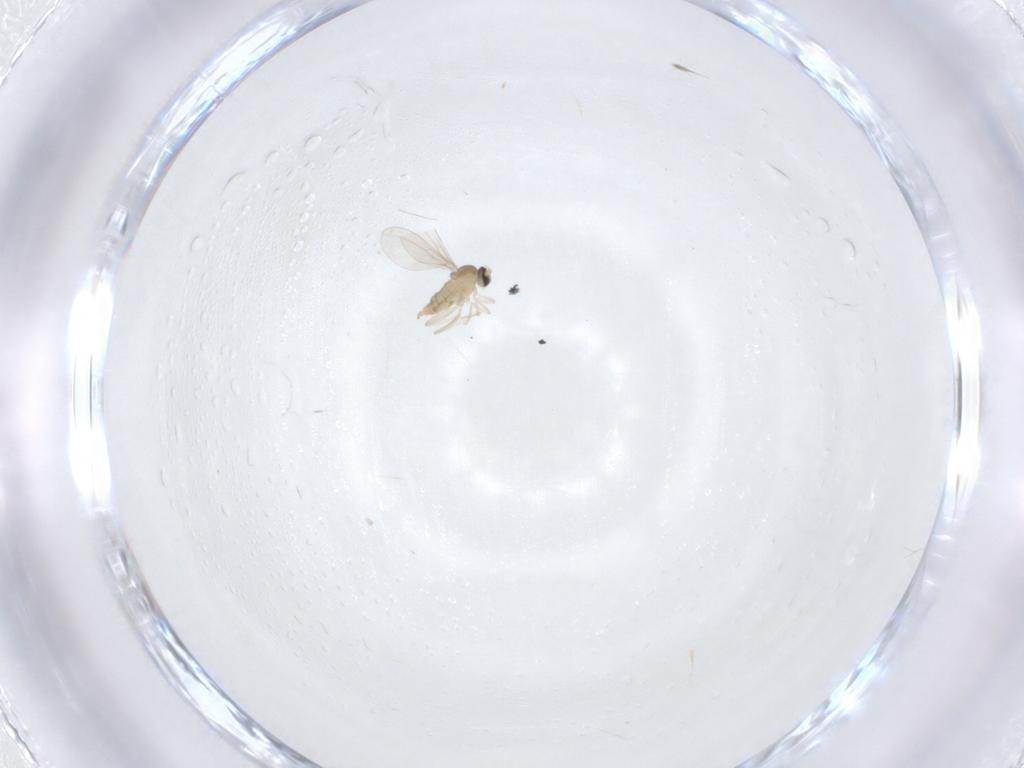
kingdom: Animalia
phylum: Arthropoda
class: Insecta
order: Diptera
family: Cecidomyiidae
